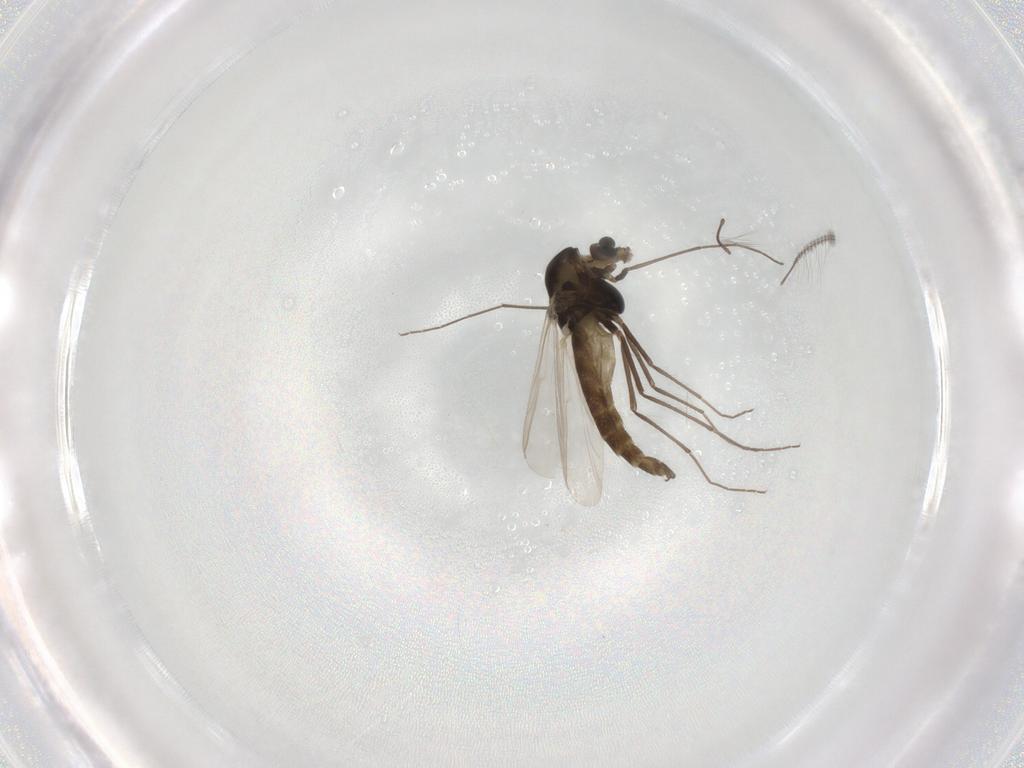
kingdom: Animalia
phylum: Arthropoda
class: Insecta
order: Diptera
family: Chironomidae
